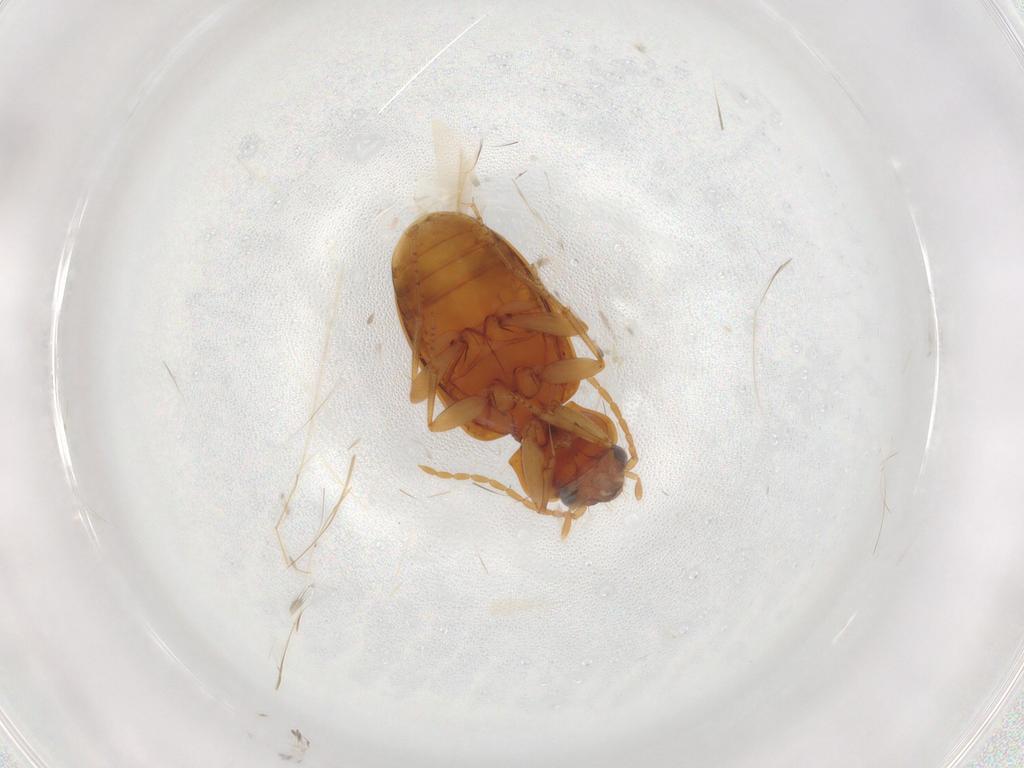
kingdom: Animalia
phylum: Arthropoda
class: Insecta
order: Coleoptera
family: Carabidae
